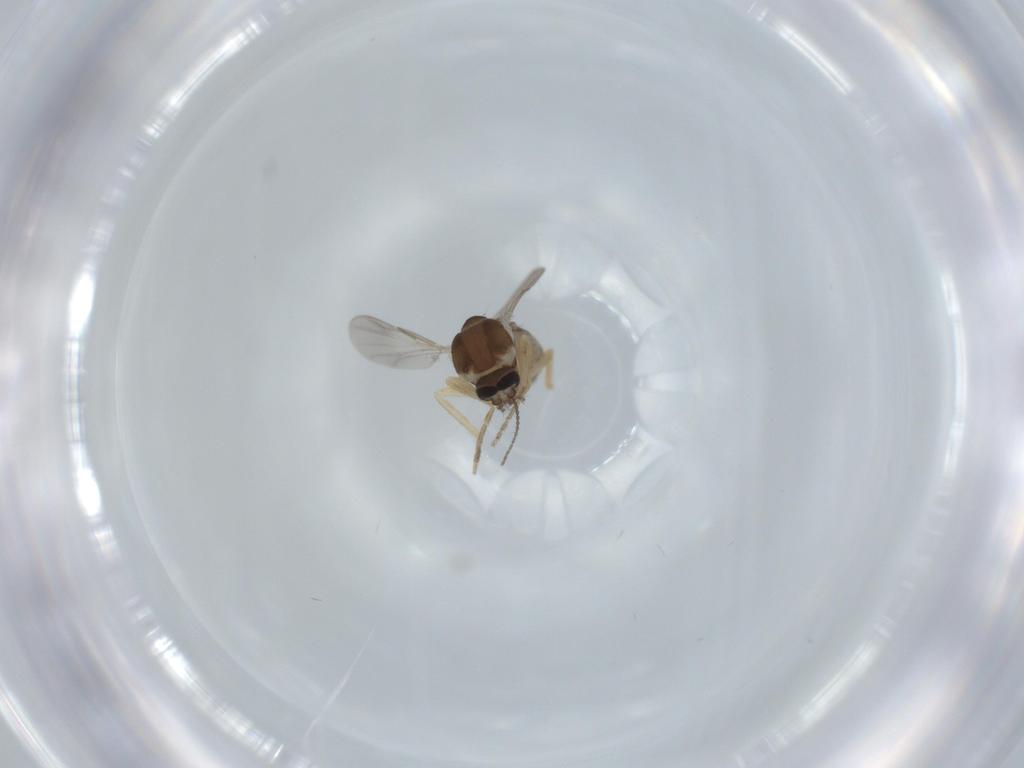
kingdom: Animalia
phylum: Arthropoda
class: Insecta
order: Diptera
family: Ceratopogonidae
